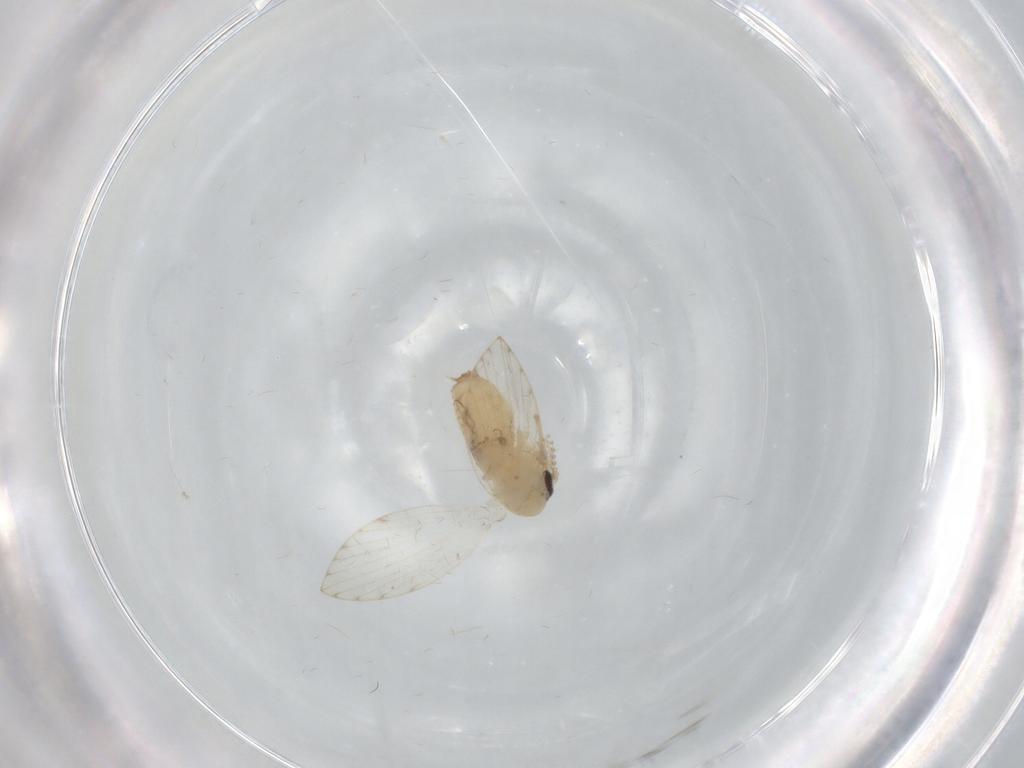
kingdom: Animalia
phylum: Arthropoda
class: Insecta
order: Diptera
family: Psychodidae
